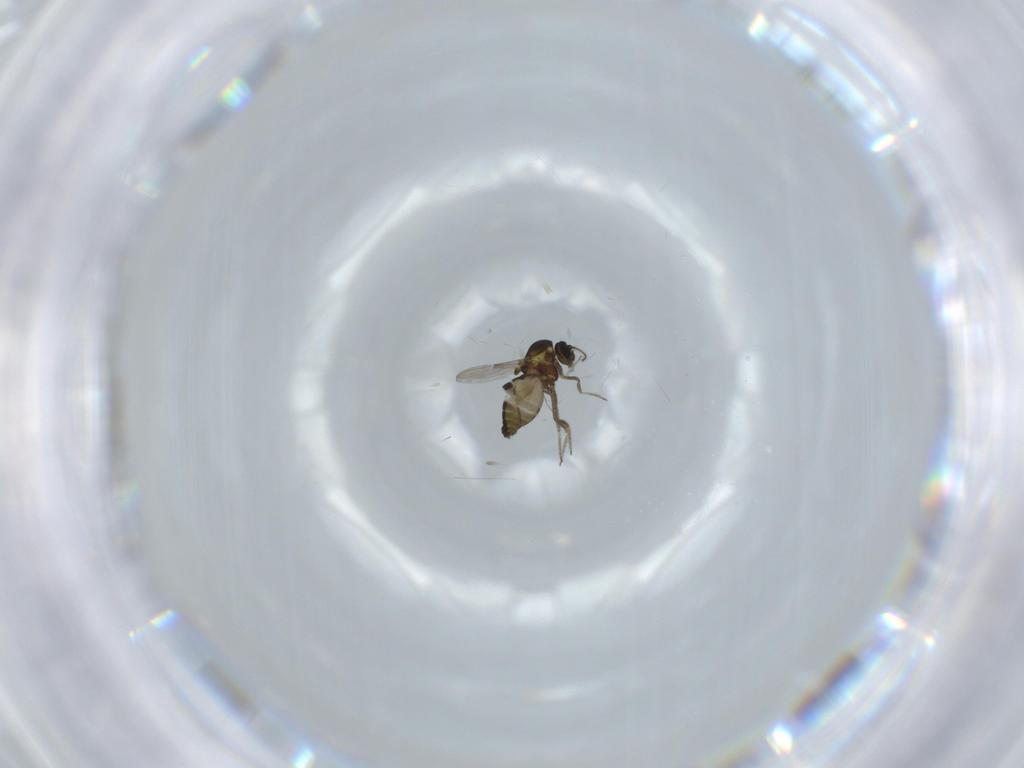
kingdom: Animalia
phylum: Arthropoda
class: Insecta
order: Diptera
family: Ceratopogonidae
